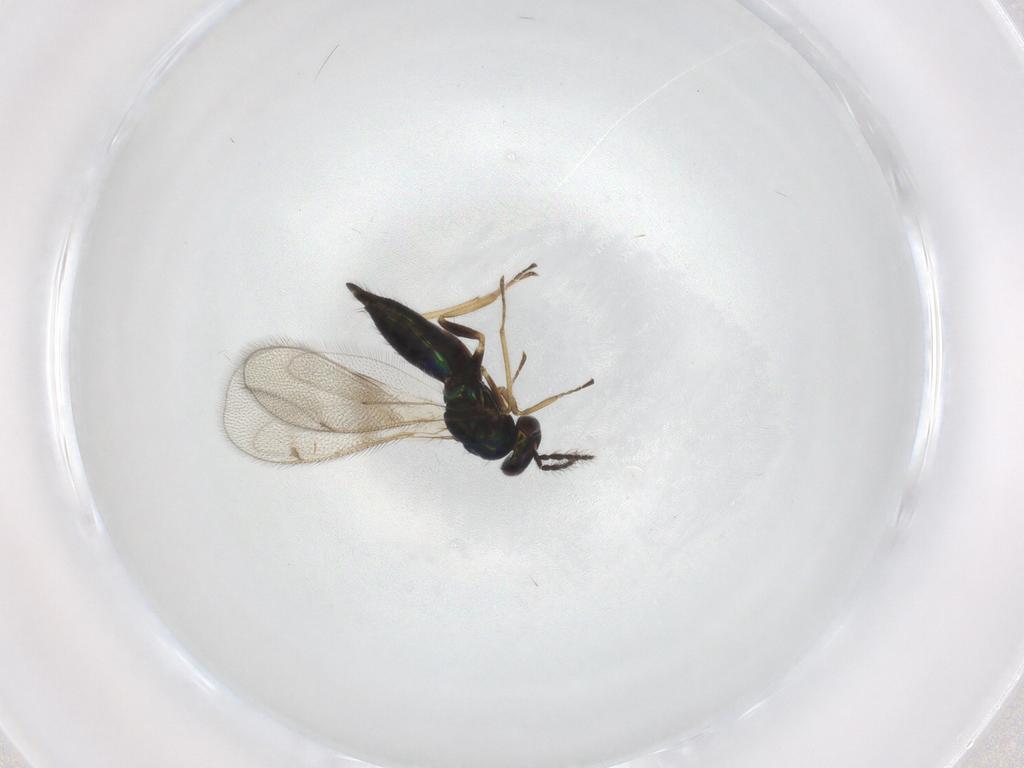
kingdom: Animalia
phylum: Arthropoda
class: Insecta
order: Hymenoptera
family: Eulophidae
